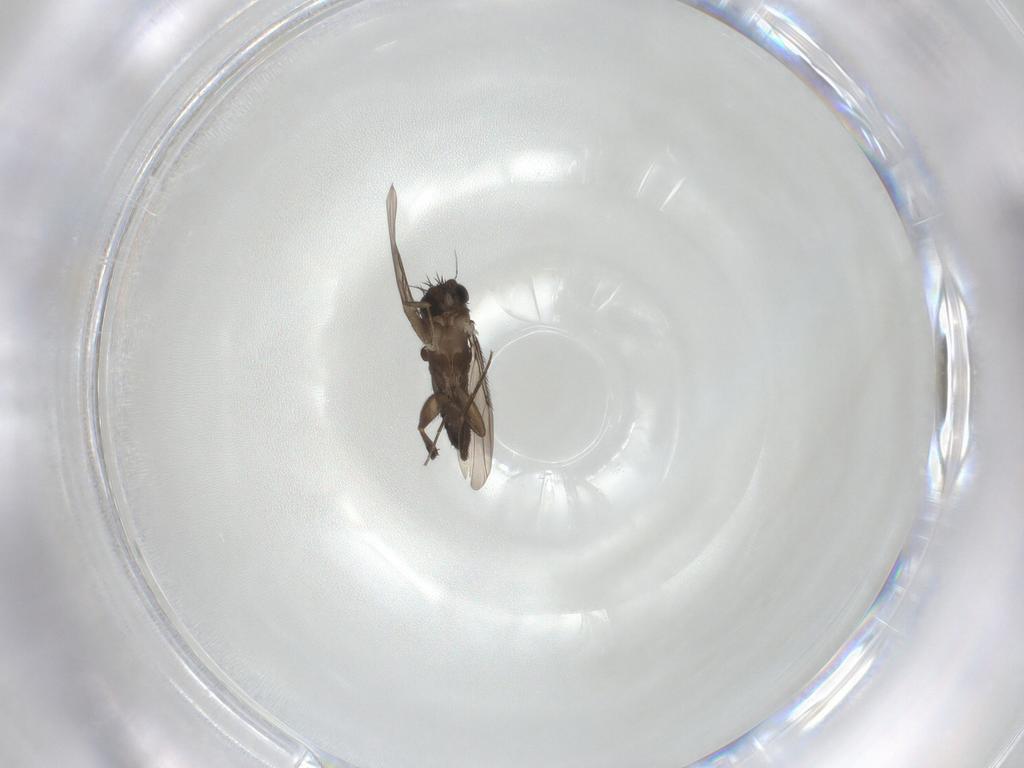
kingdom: Animalia
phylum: Arthropoda
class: Insecta
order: Diptera
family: Phoridae
